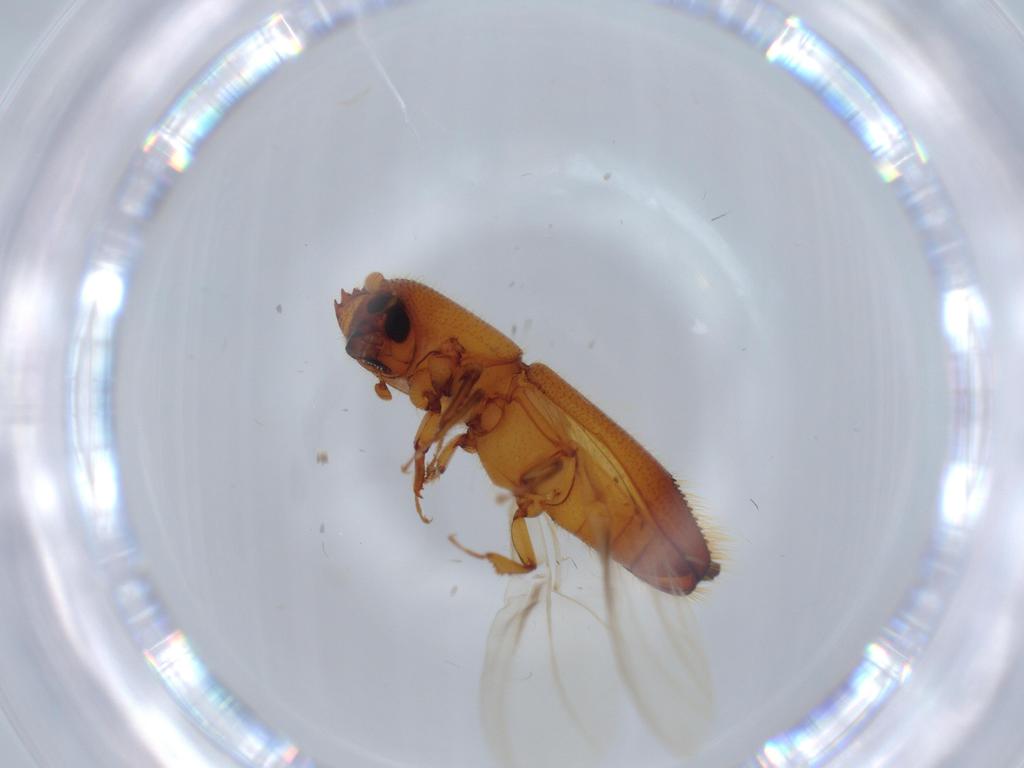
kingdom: Animalia
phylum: Arthropoda
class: Insecta
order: Coleoptera
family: Curculionidae
